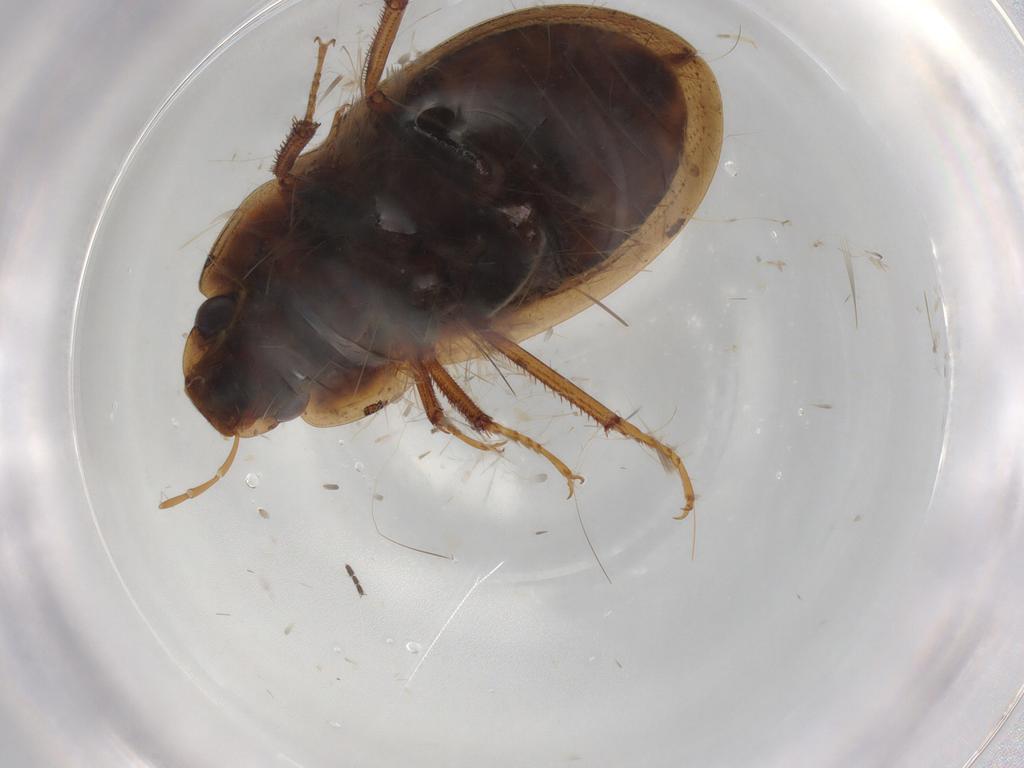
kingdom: Animalia
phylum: Arthropoda
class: Insecta
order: Coleoptera
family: Hydrophilidae
